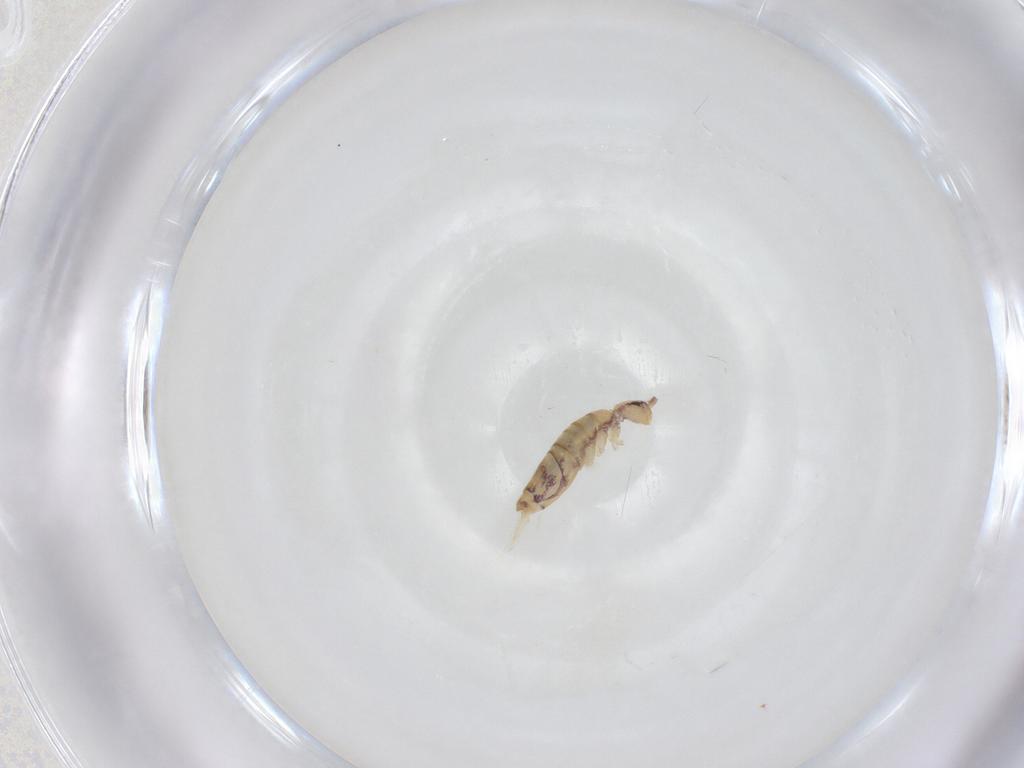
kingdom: Animalia
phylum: Arthropoda
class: Collembola
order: Entomobryomorpha
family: Entomobryidae
